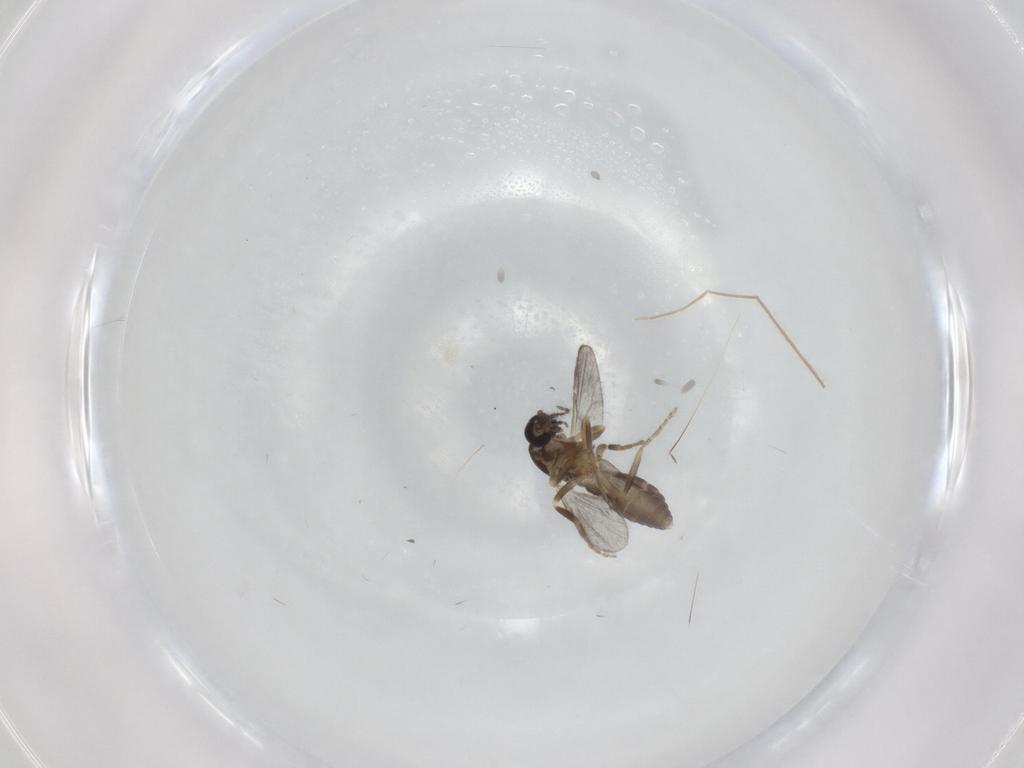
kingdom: Animalia
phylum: Arthropoda
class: Insecta
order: Diptera
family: Ceratopogonidae
